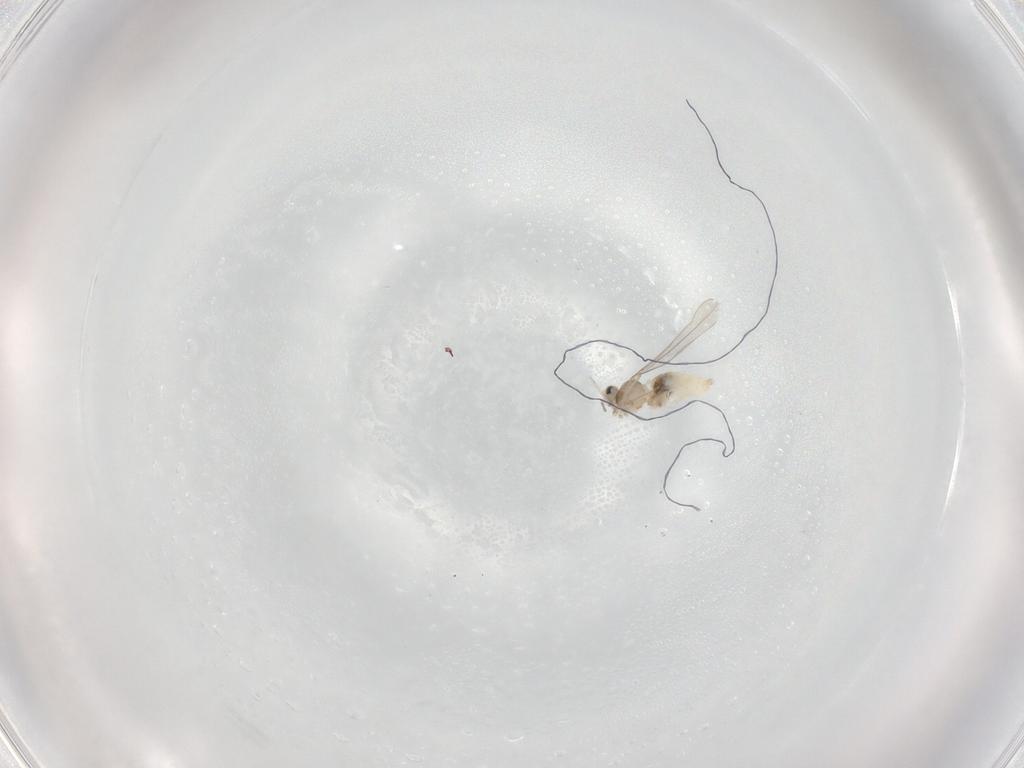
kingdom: Animalia
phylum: Arthropoda
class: Insecta
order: Diptera
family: Cecidomyiidae
